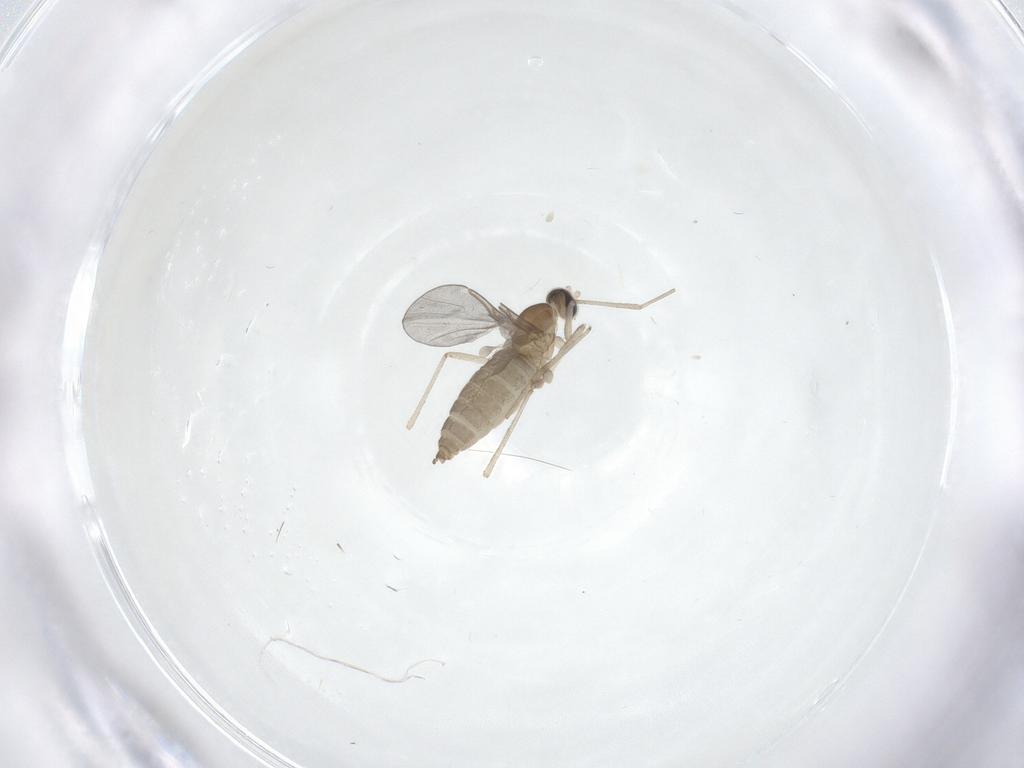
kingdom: Animalia
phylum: Arthropoda
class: Insecta
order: Diptera
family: Cecidomyiidae
